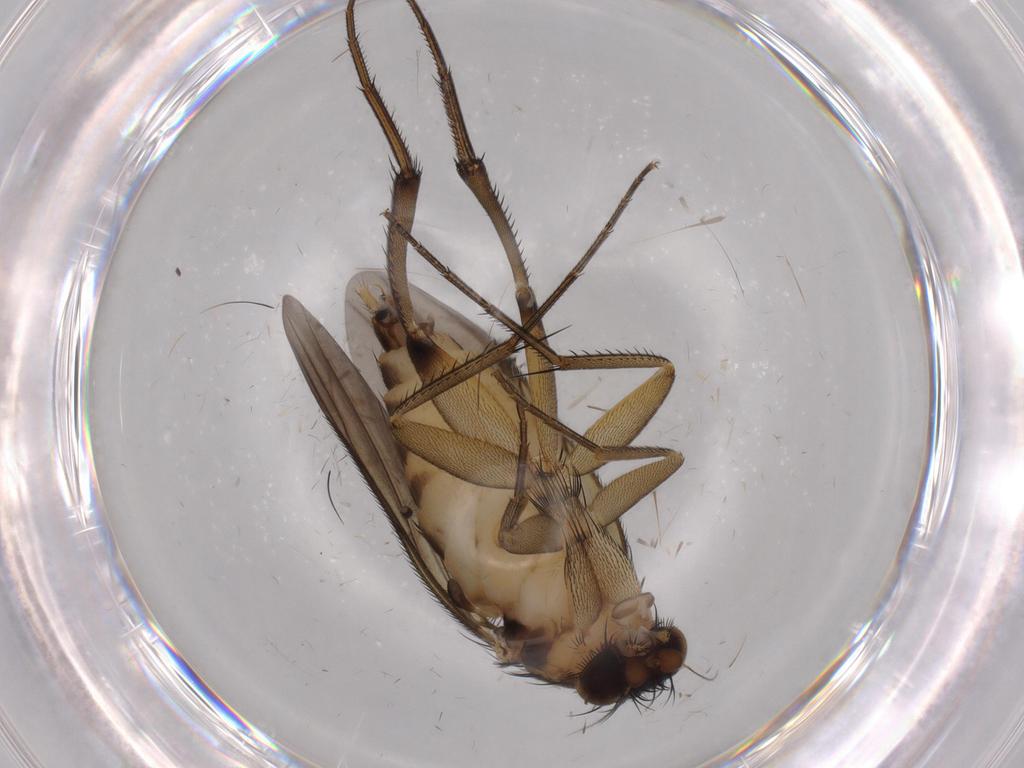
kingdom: Animalia
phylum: Arthropoda
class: Insecta
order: Diptera
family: Phoridae
